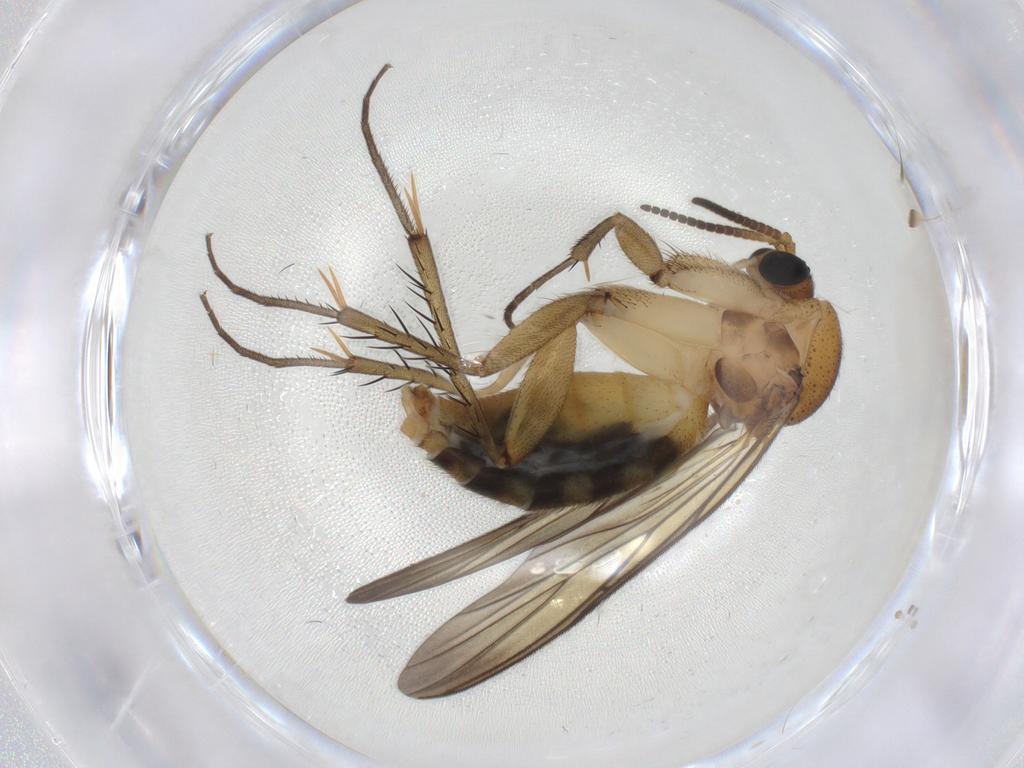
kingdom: Animalia
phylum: Arthropoda
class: Insecta
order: Diptera
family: Mycetophilidae
